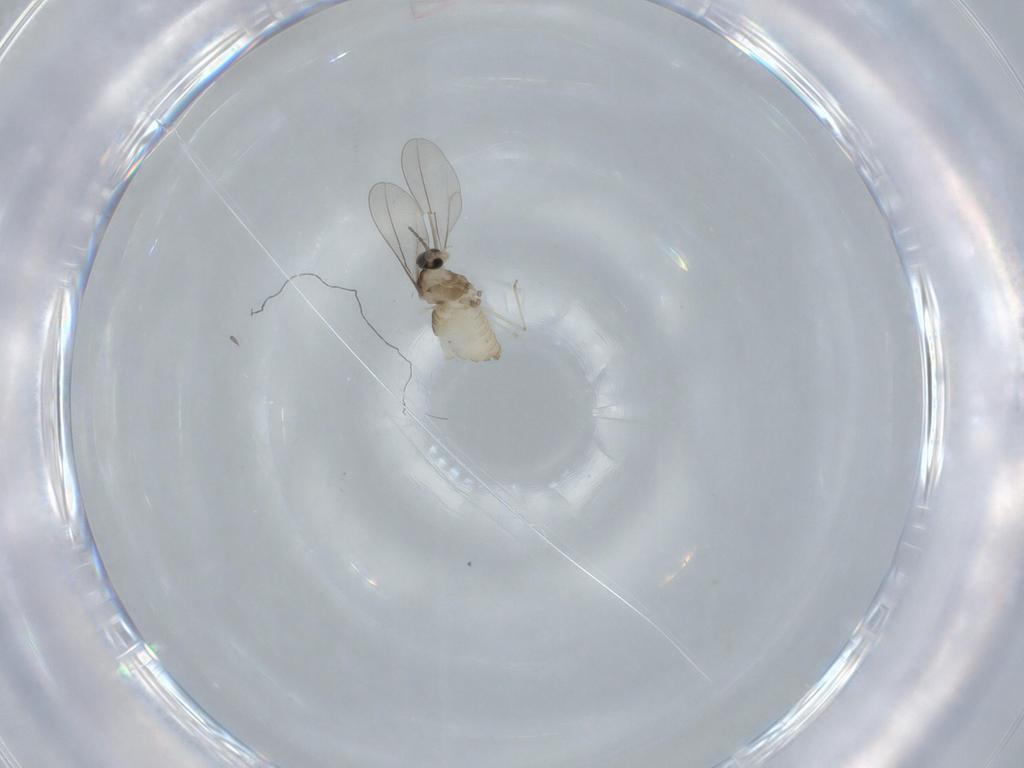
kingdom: Animalia
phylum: Arthropoda
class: Insecta
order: Diptera
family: Cecidomyiidae
